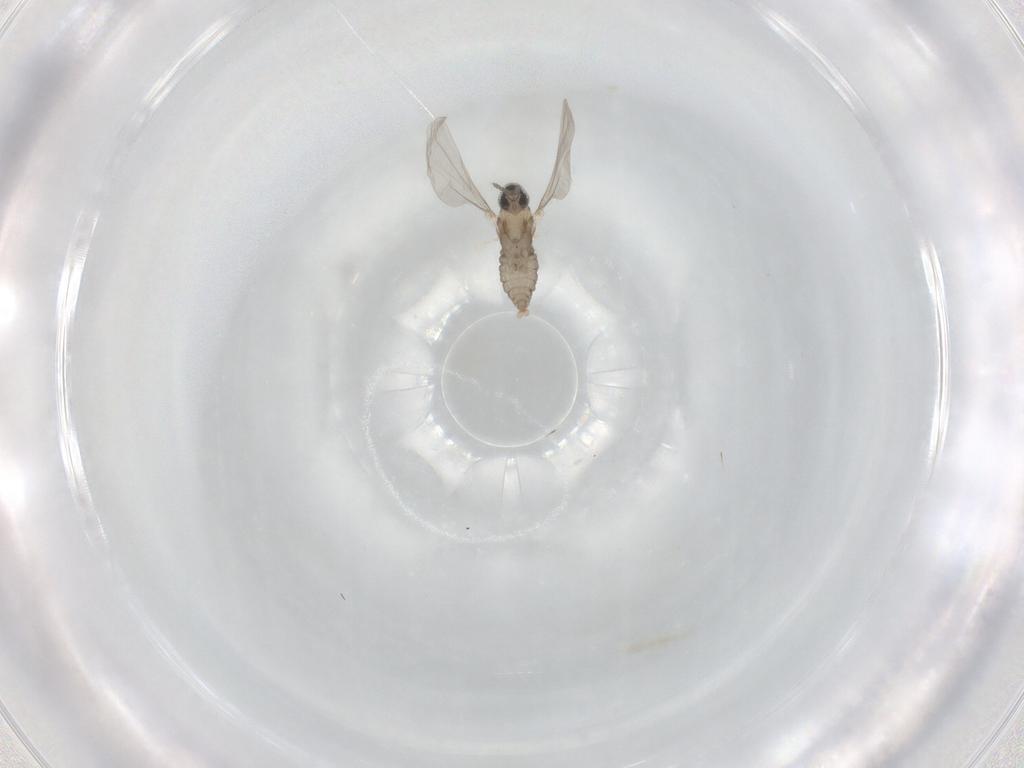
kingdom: Animalia
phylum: Arthropoda
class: Insecta
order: Diptera
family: Cecidomyiidae
